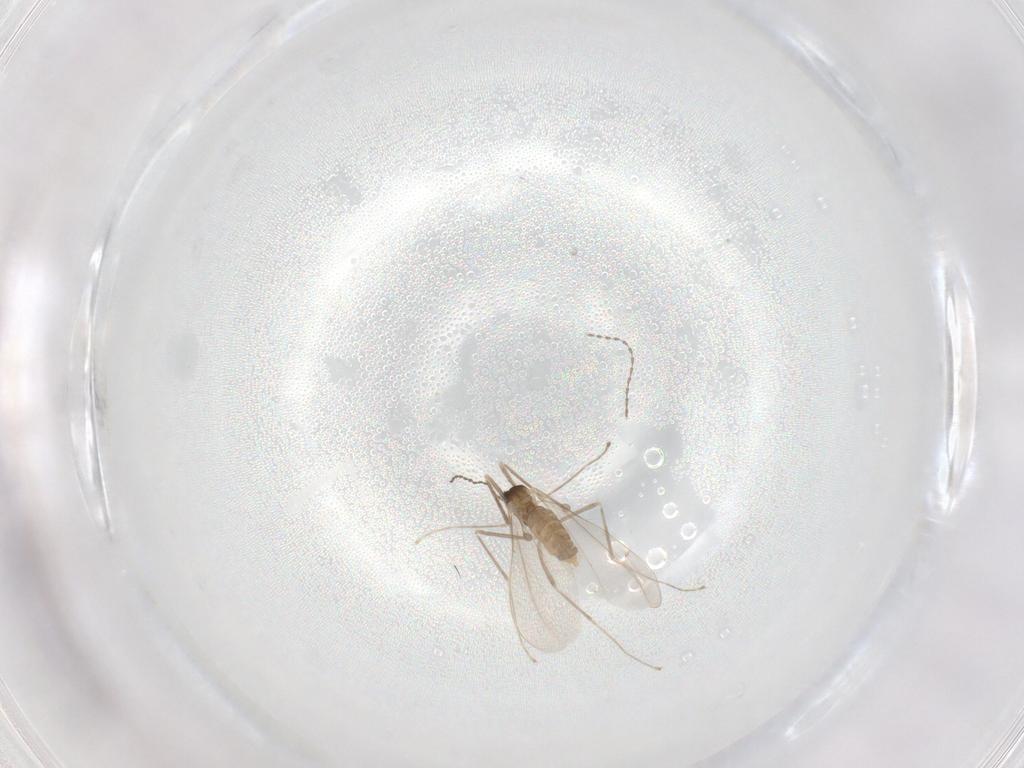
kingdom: Animalia
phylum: Arthropoda
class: Insecta
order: Diptera
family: Cecidomyiidae
